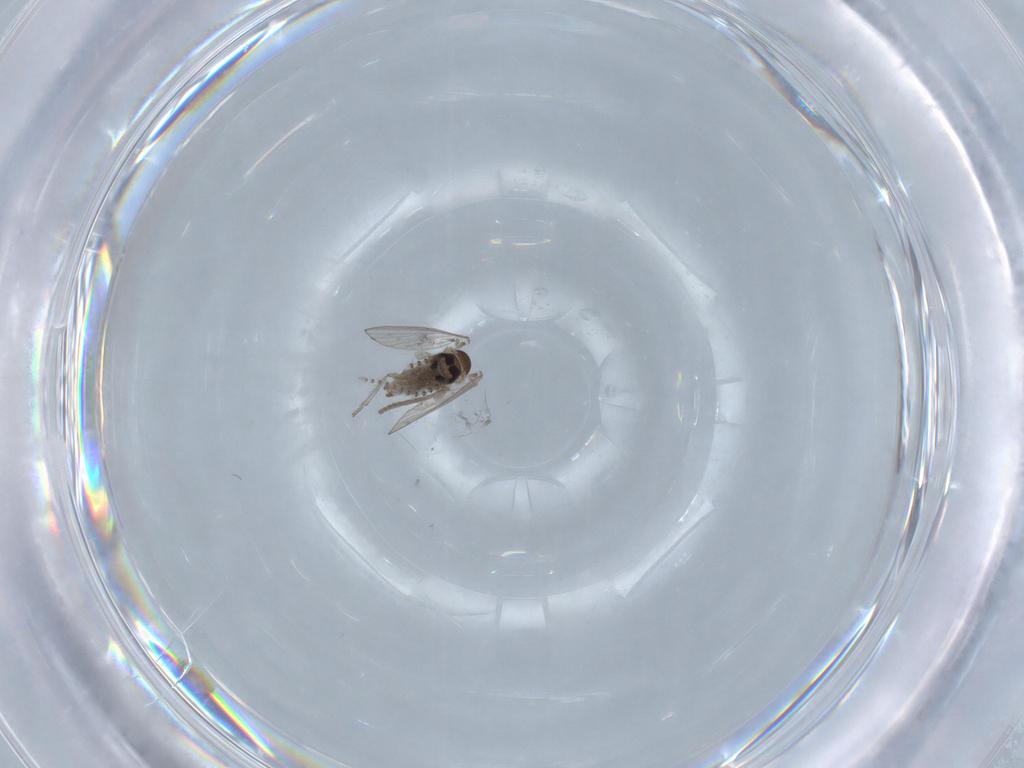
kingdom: Animalia
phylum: Arthropoda
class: Insecta
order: Diptera
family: Psychodidae
